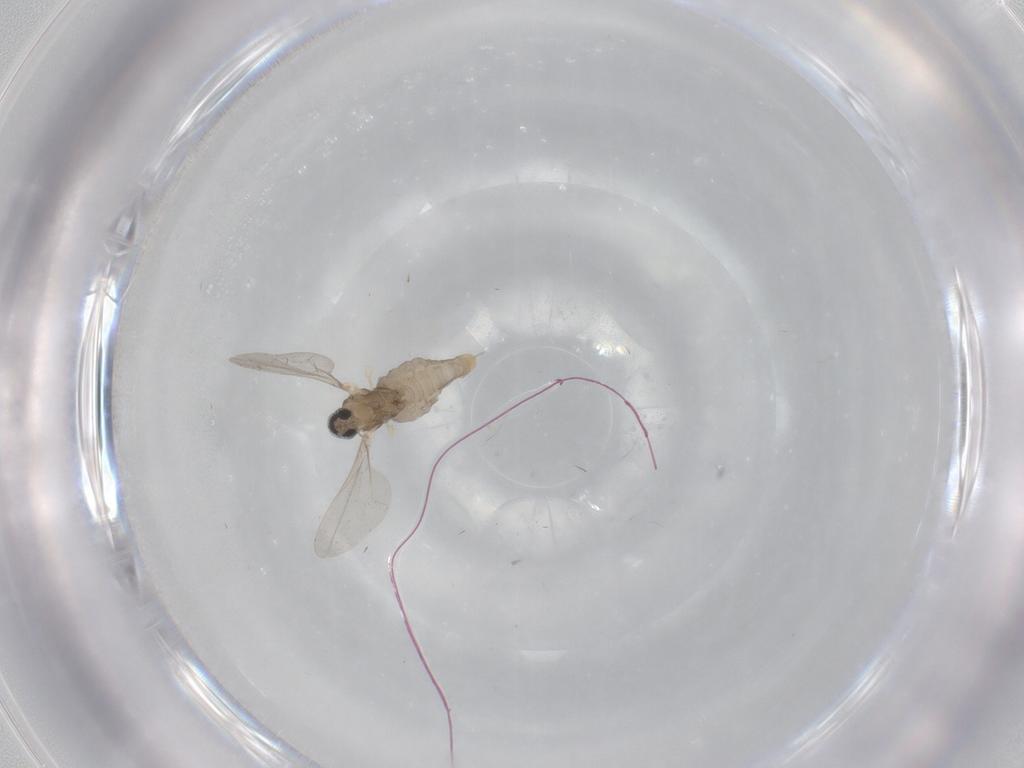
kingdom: Animalia
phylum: Arthropoda
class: Insecta
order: Diptera
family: Cecidomyiidae
